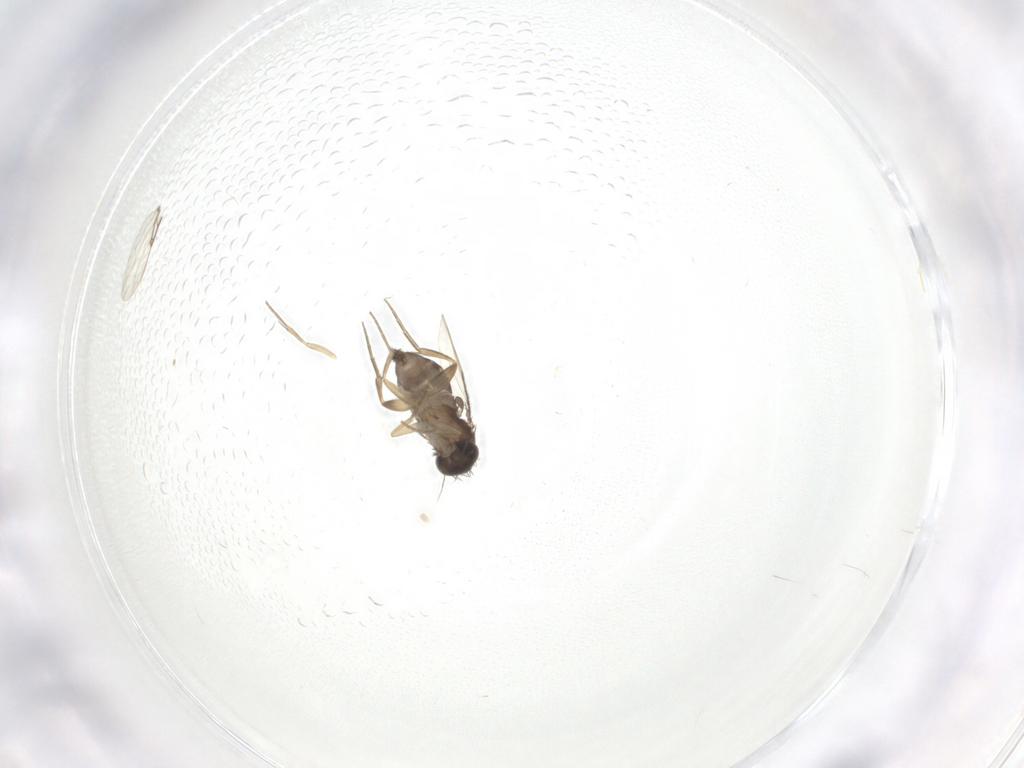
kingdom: Animalia
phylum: Arthropoda
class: Insecta
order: Diptera
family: Phoridae
